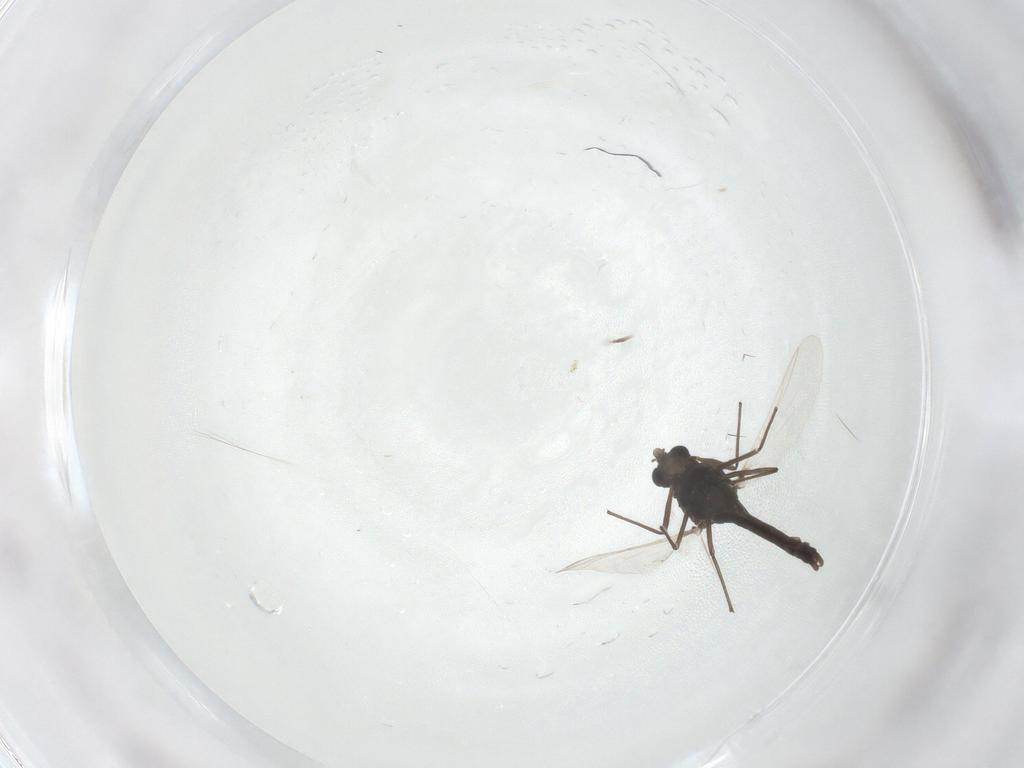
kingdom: Animalia
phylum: Arthropoda
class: Insecta
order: Diptera
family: Chironomidae
